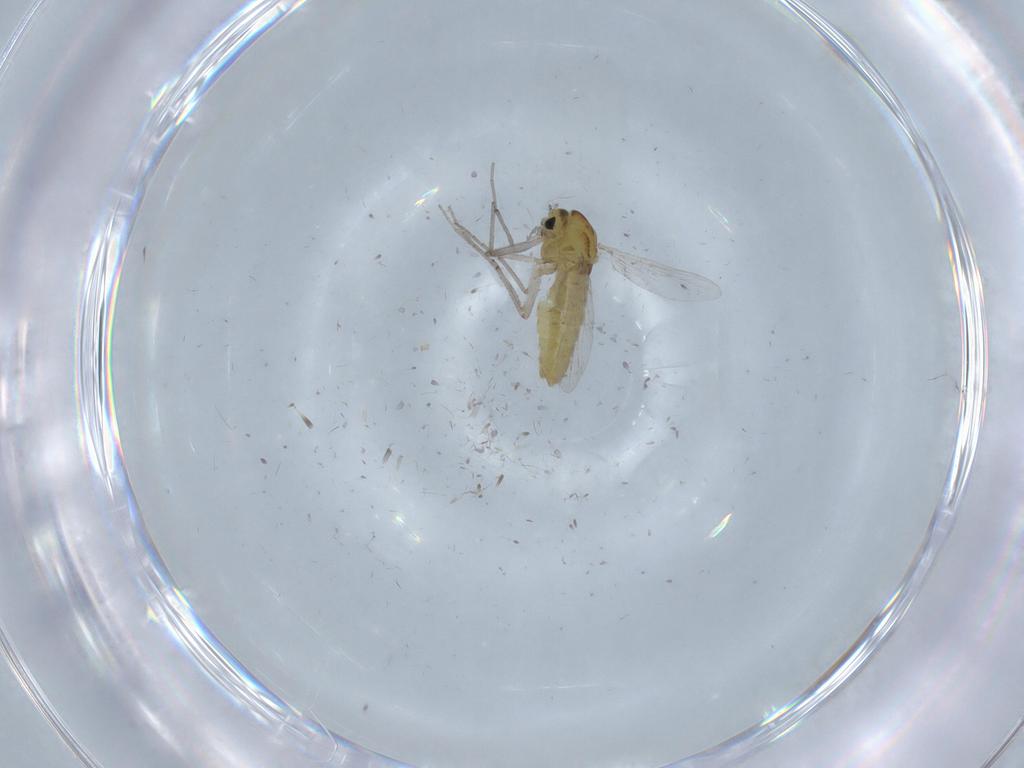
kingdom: Animalia
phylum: Arthropoda
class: Insecta
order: Diptera
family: Chironomidae
